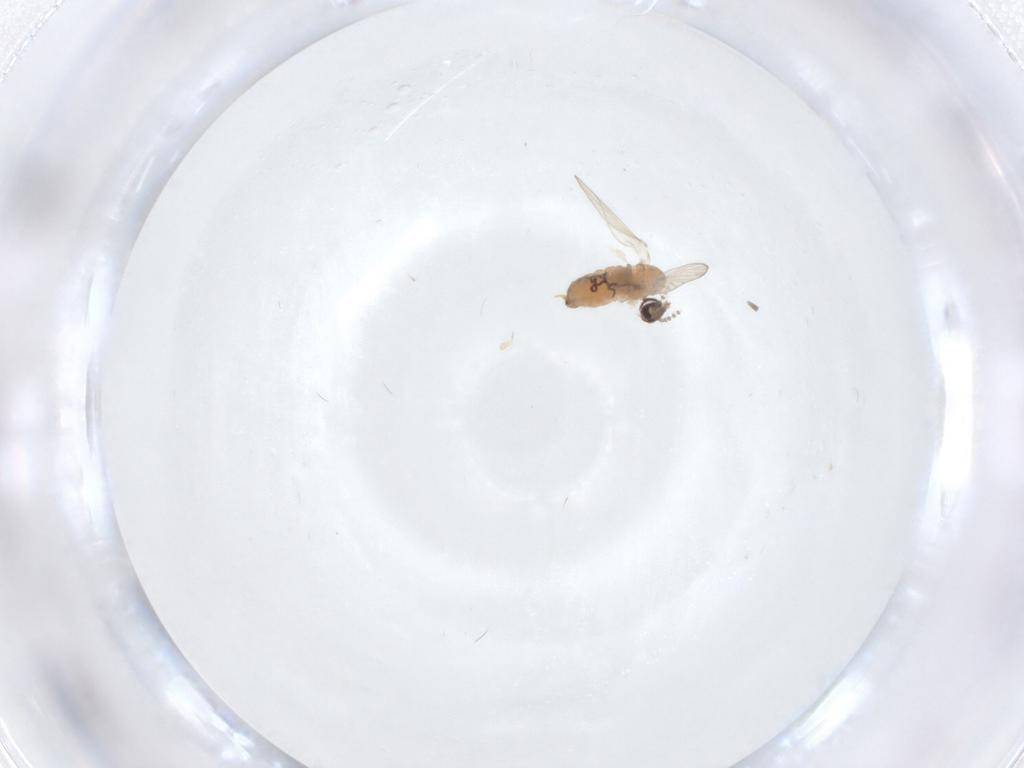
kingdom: Animalia
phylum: Arthropoda
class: Insecta
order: Diptera
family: Psychodidae
